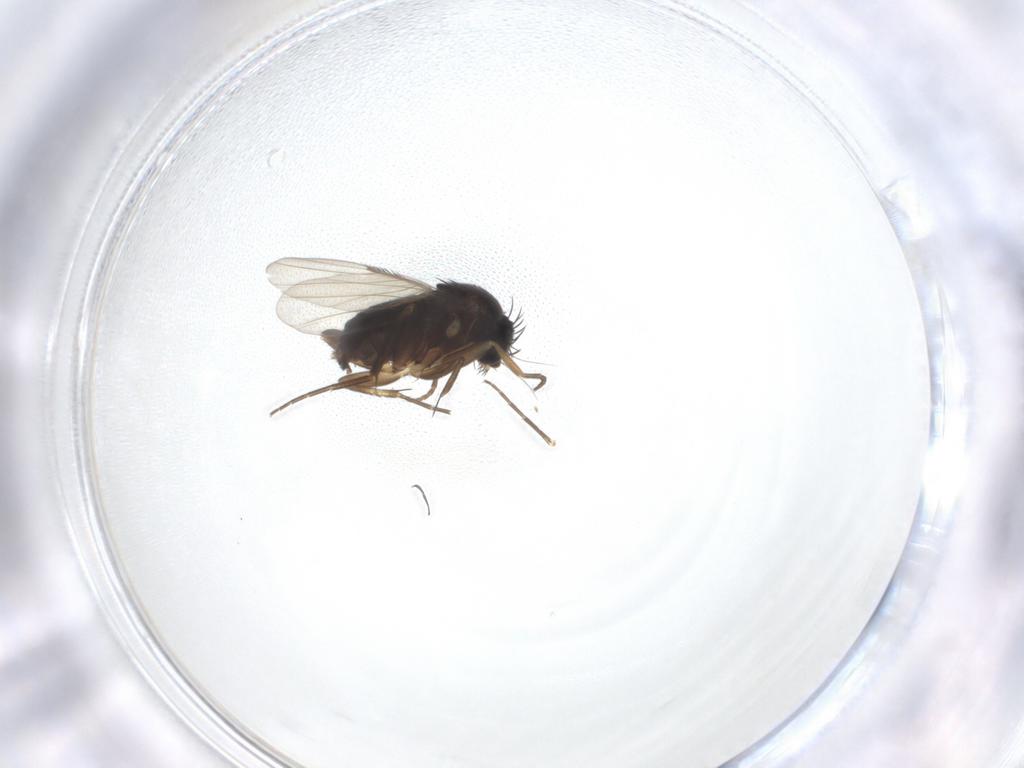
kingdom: Animalia
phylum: Arthropoda
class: Insecta
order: Diptera
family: Phoridae
